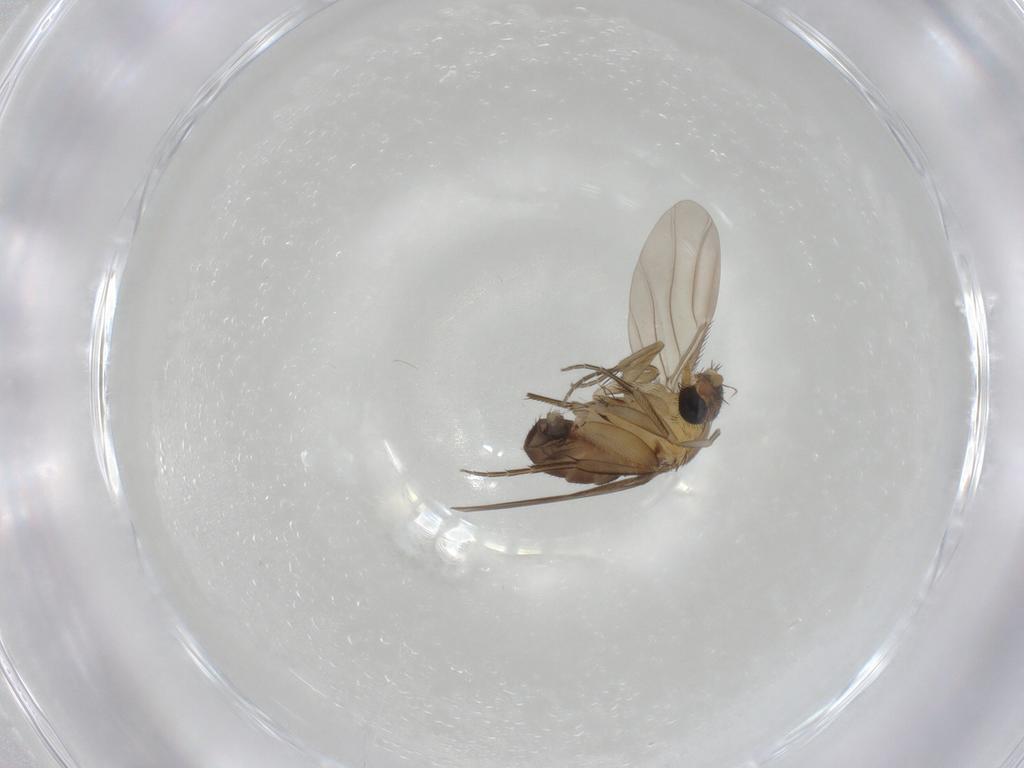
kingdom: Animalia
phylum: Arthropoda
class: Insecta
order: Diptera
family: Phoridae
